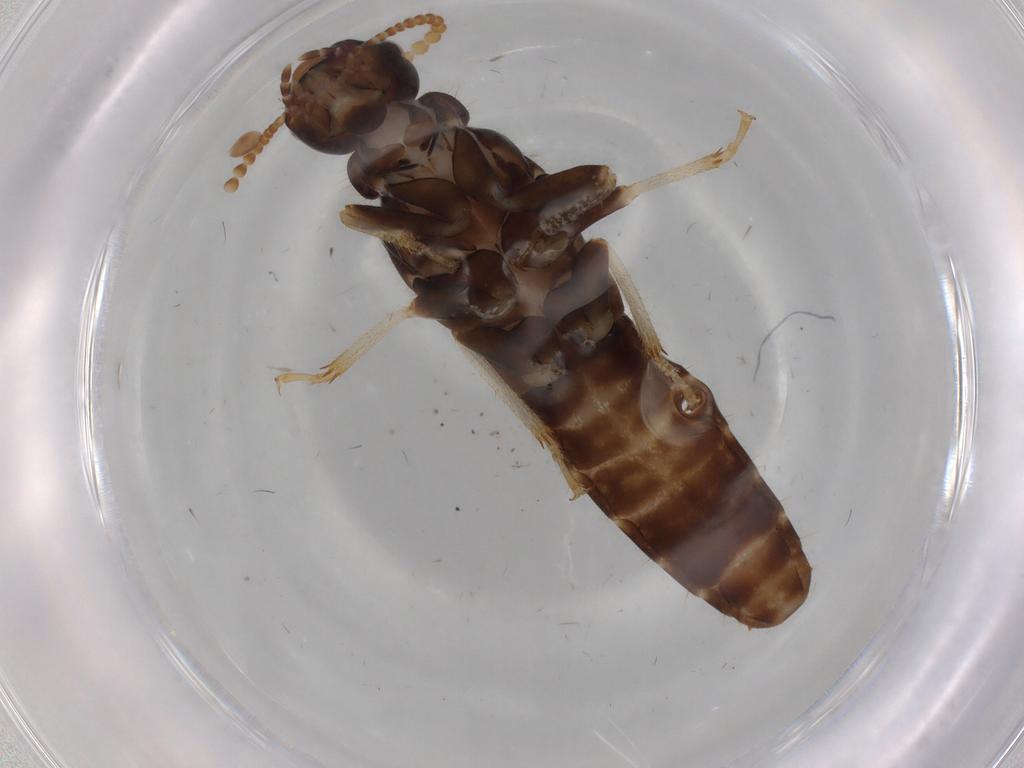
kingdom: Animalia
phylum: Arthropoda
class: Insecta
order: Blattodea
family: Kalotermitidae
